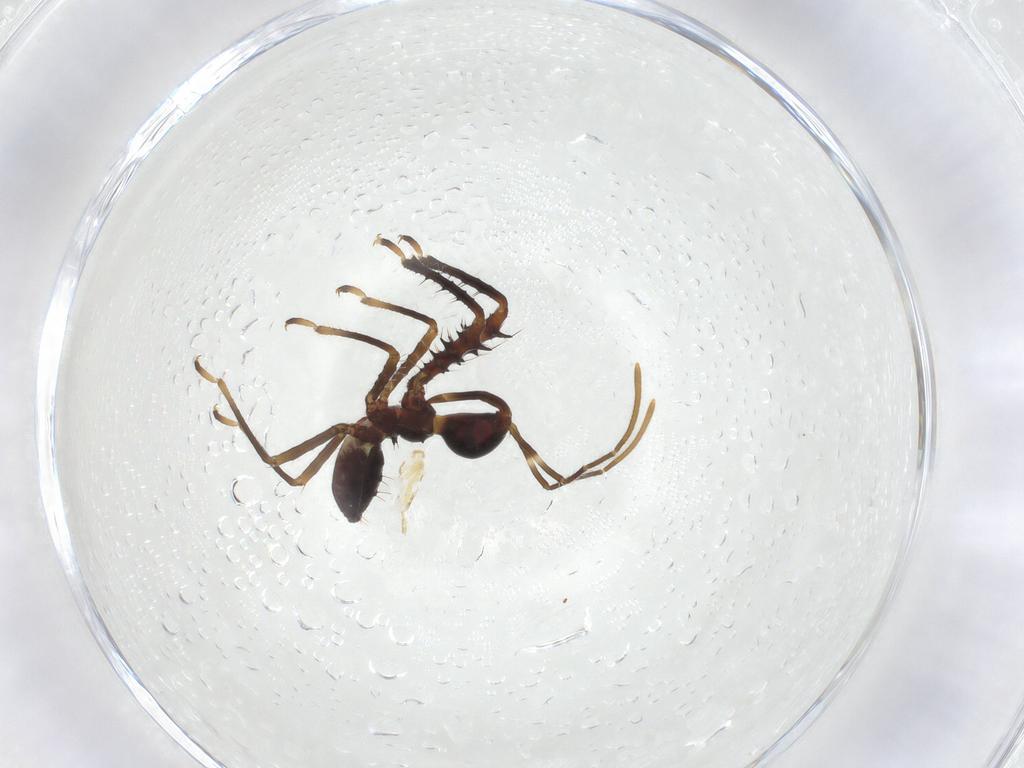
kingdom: Animalia
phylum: Arthropoda
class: Insecta
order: Hemiptera
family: Reduviidae
